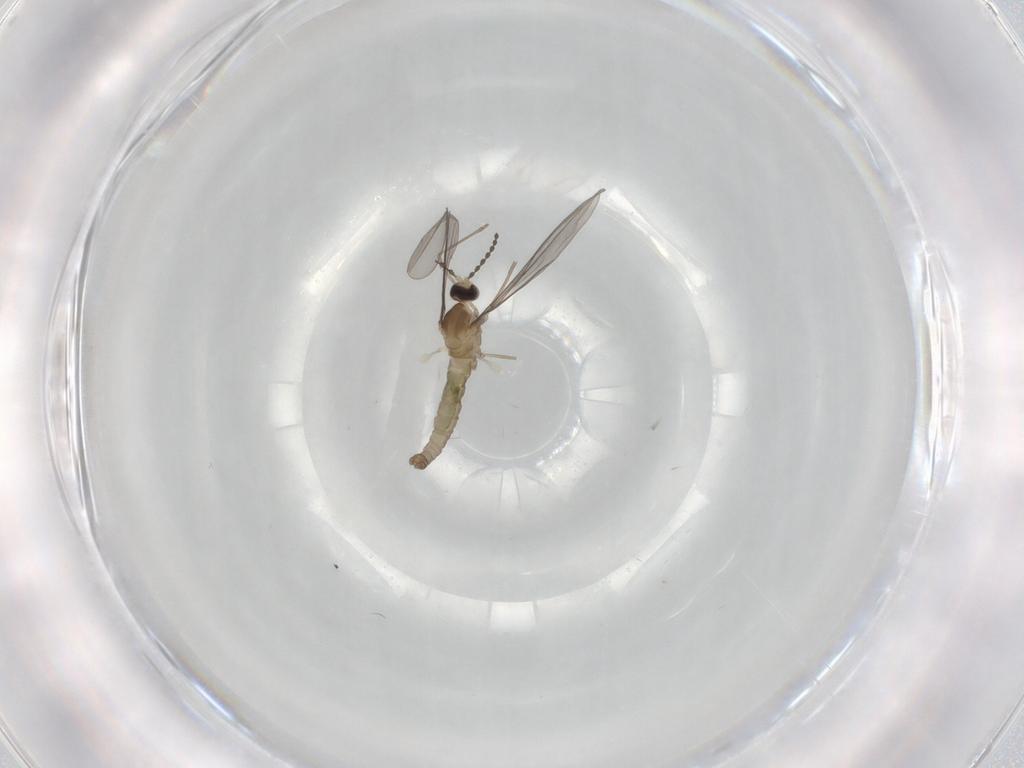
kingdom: Animalia
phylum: Arthropoda
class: Insecta
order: Diptera
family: Cecidomyiidae
